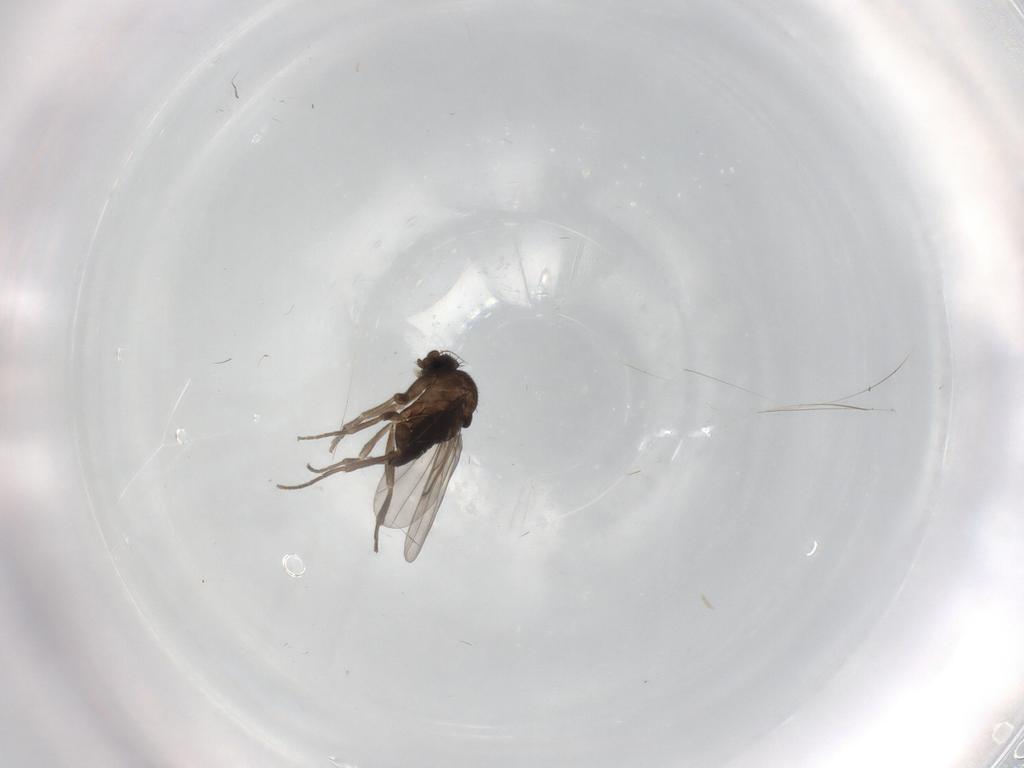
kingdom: Animalia
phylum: Arthropoda
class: Insecta
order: Diptera
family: Phoridae
